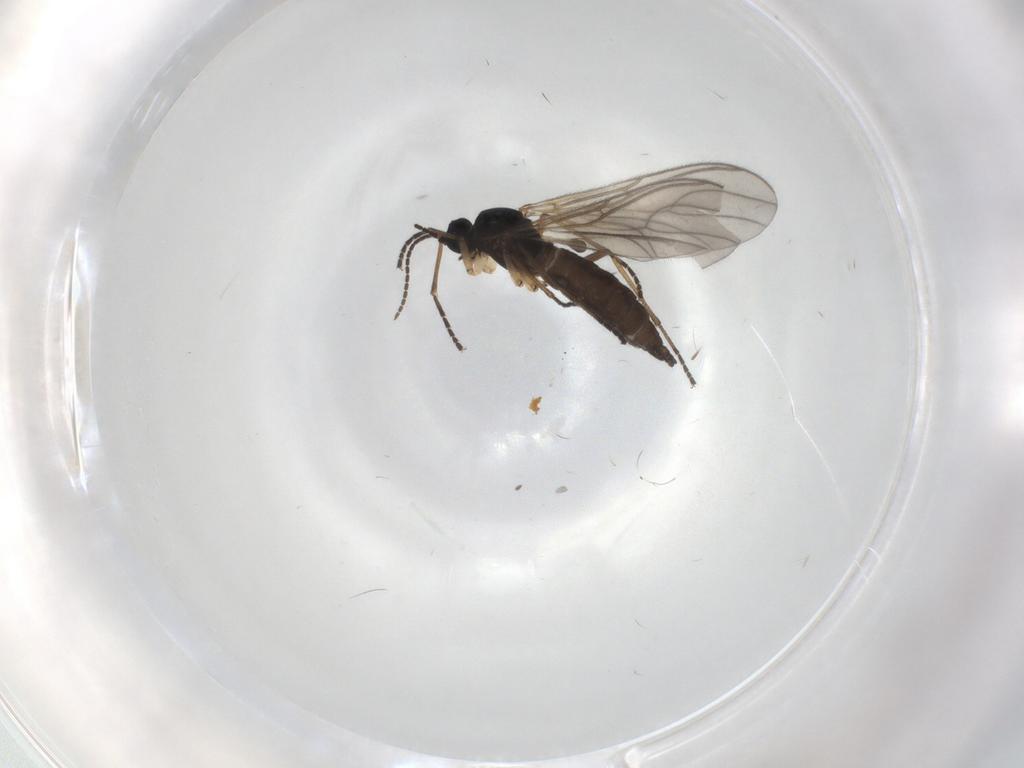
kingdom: Animalia
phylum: Arthropoda
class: Insecta
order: Diptera
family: Sciaridae
